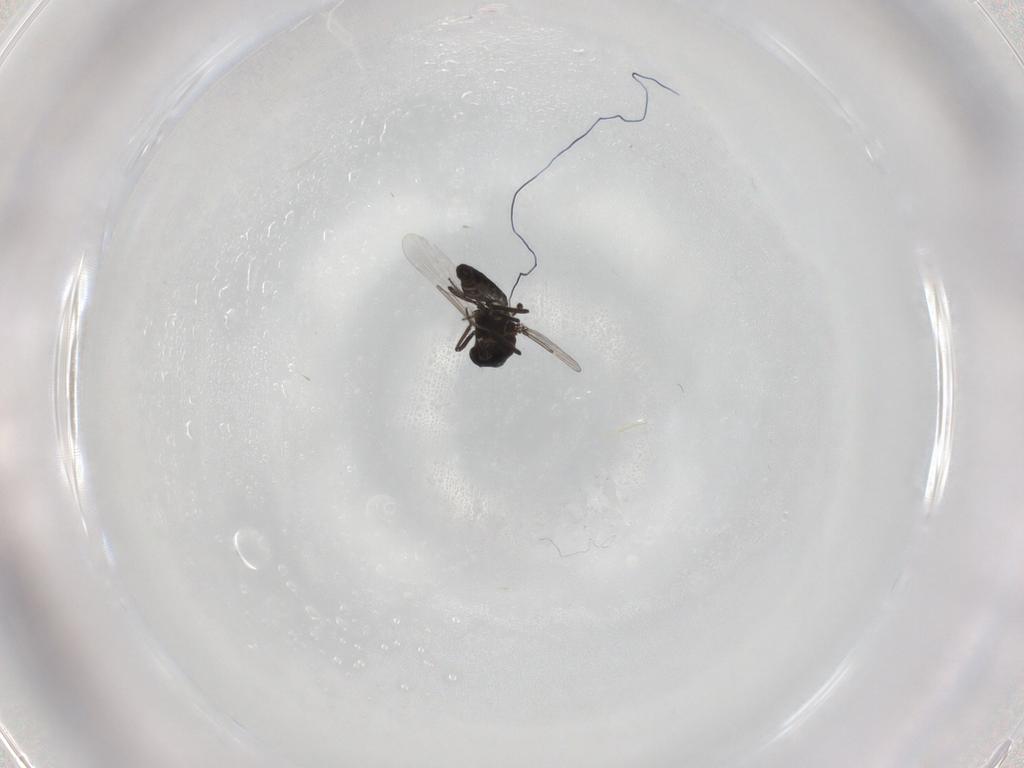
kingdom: Animalia
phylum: Arthropoda
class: Insecta
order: Diptera
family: Ceratopogonidae
